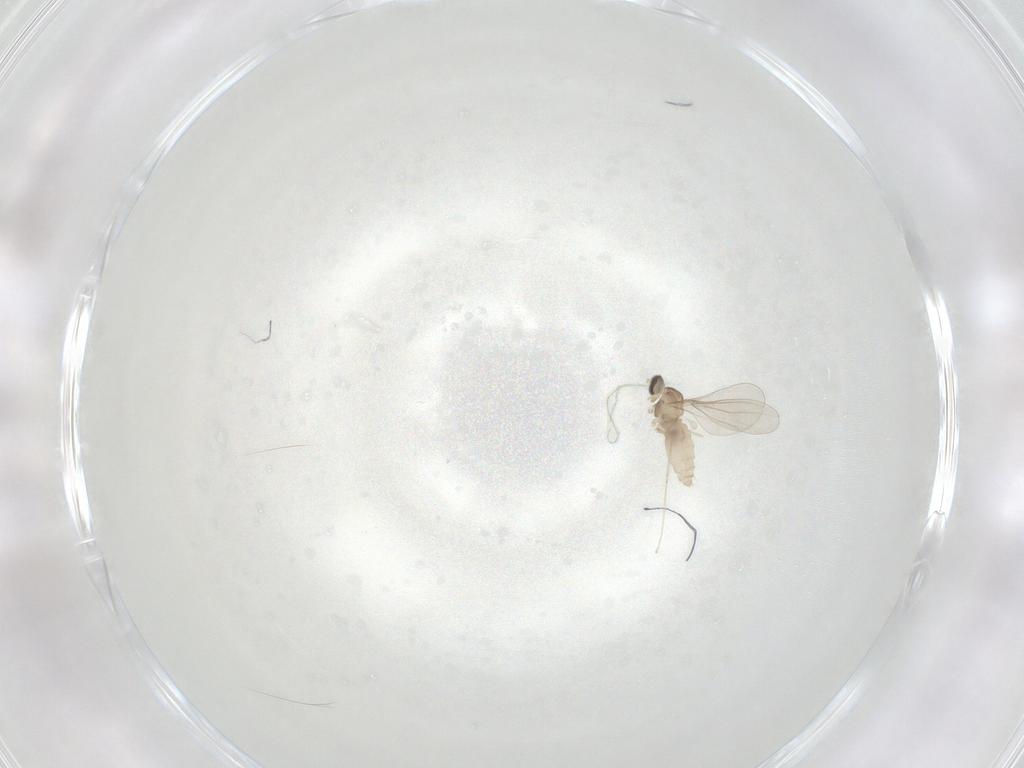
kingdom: Animalia
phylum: Arthropoda
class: Insecta
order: Diptera
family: Cecidomyiidae
